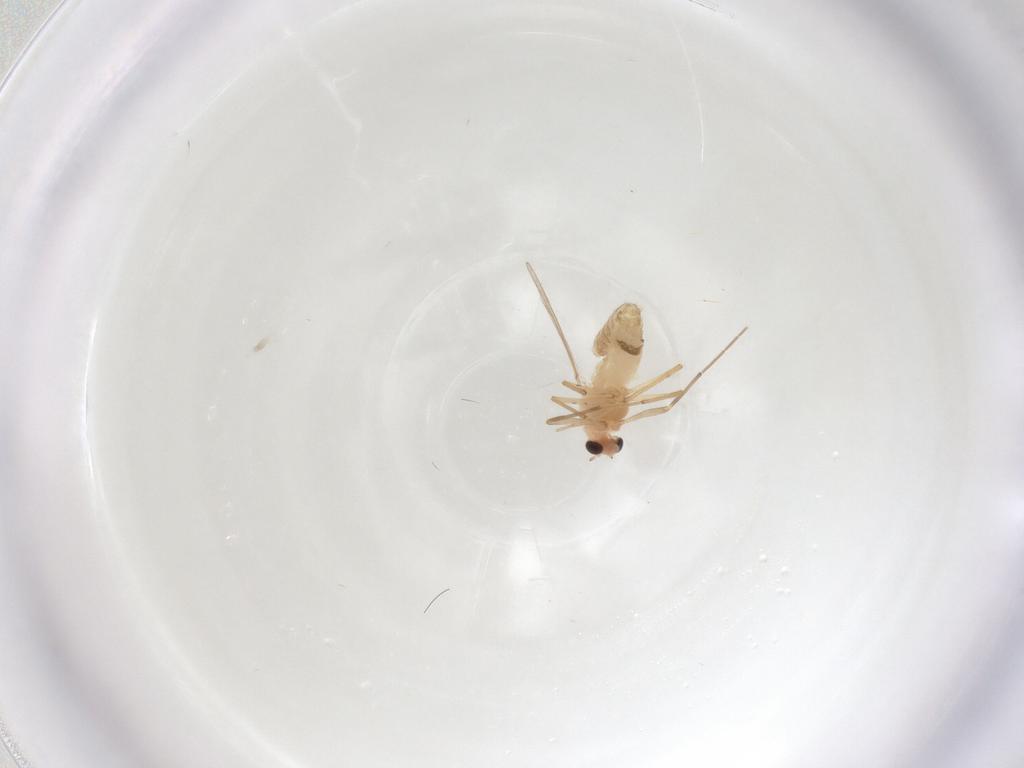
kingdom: Animalia
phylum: Arthropoda
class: Insecta
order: Diptera
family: Chironomidae
